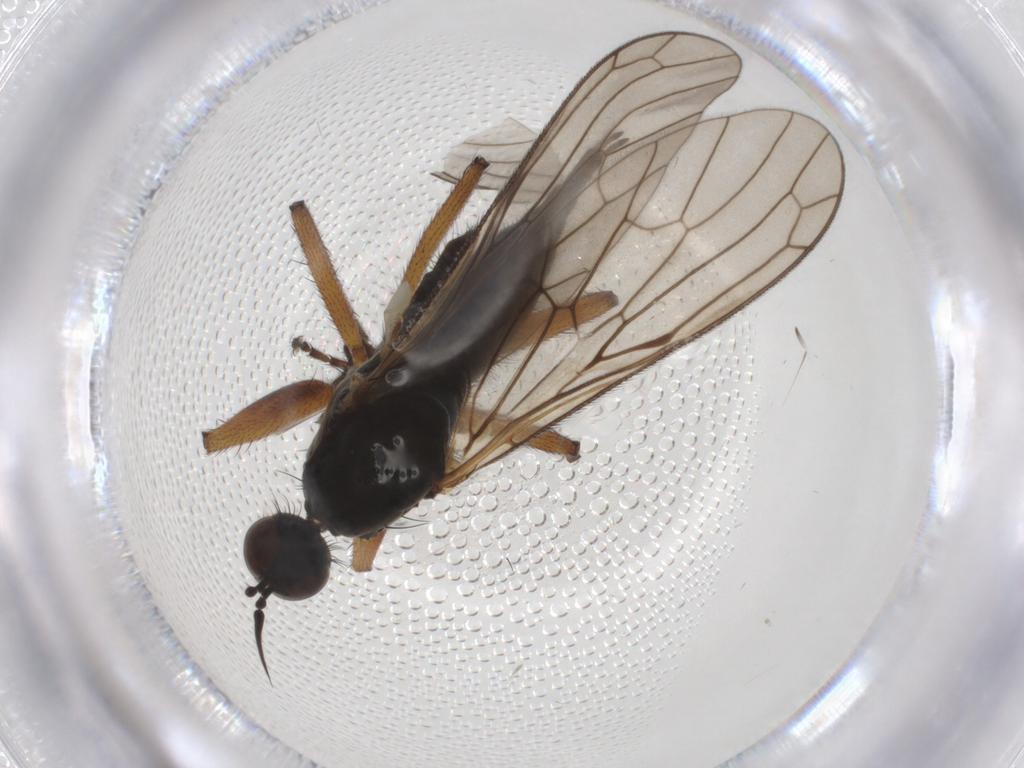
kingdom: Animalia
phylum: Arthropoda
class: Insecta
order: Diptera
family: Empididae
